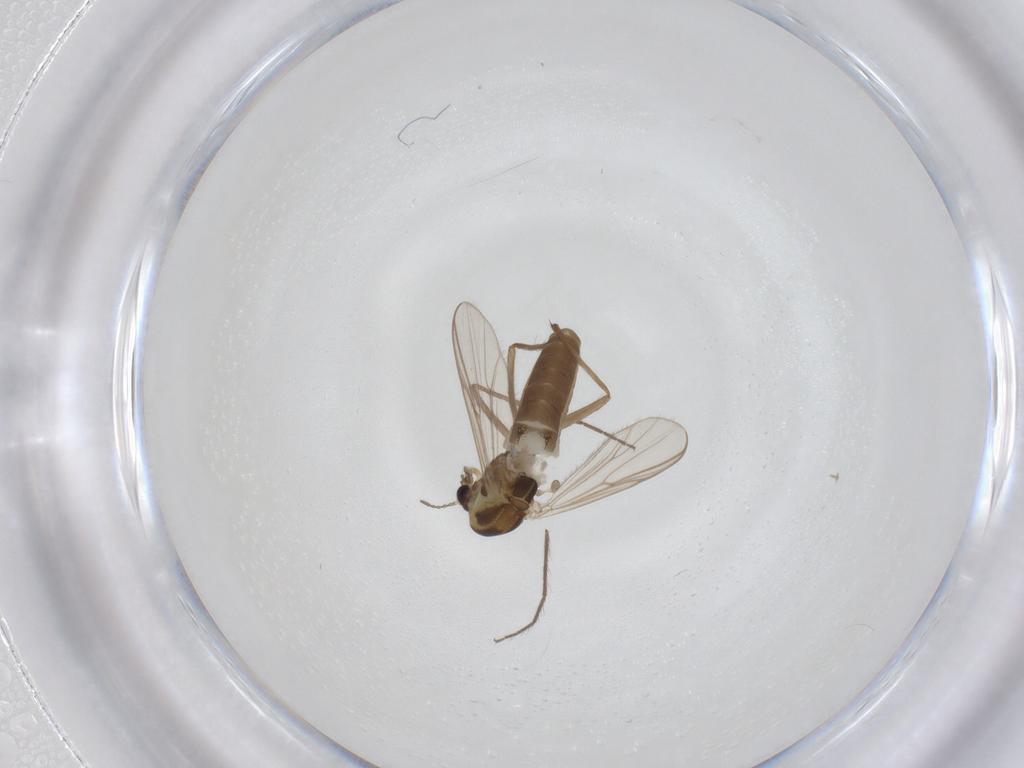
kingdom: Animalia
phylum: Arthropoda
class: Insecta
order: Diptera
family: Chironomidae
